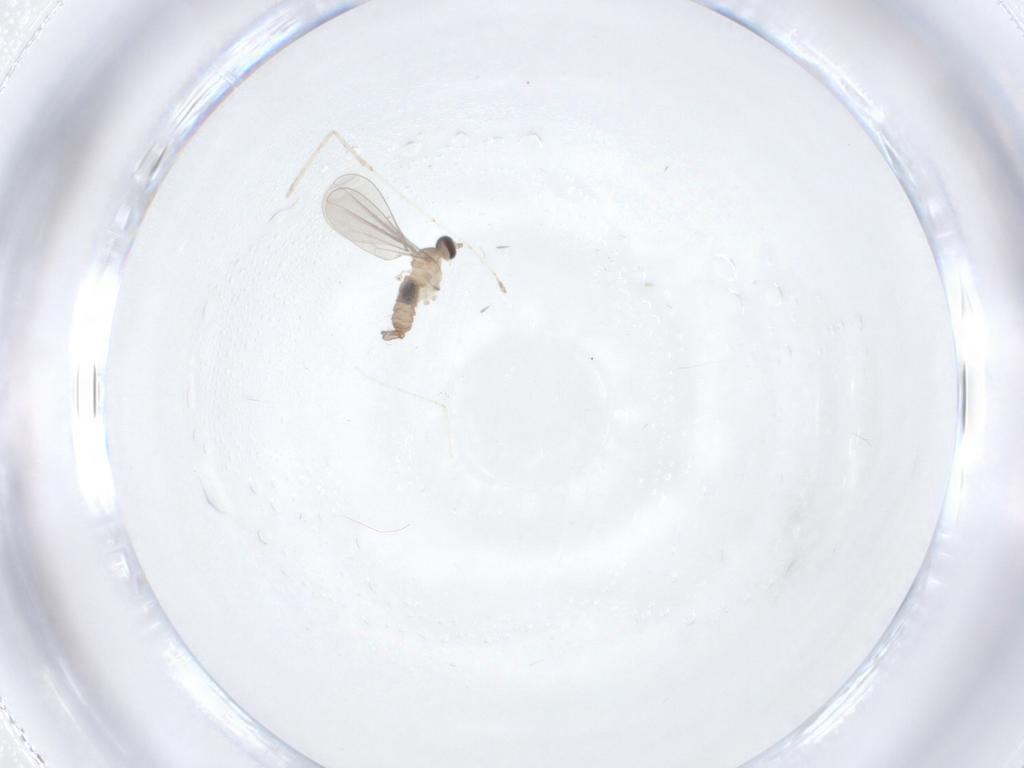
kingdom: Animalia
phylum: Arthropoda
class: Insecta
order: Diptera
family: Cecidomyiidae
